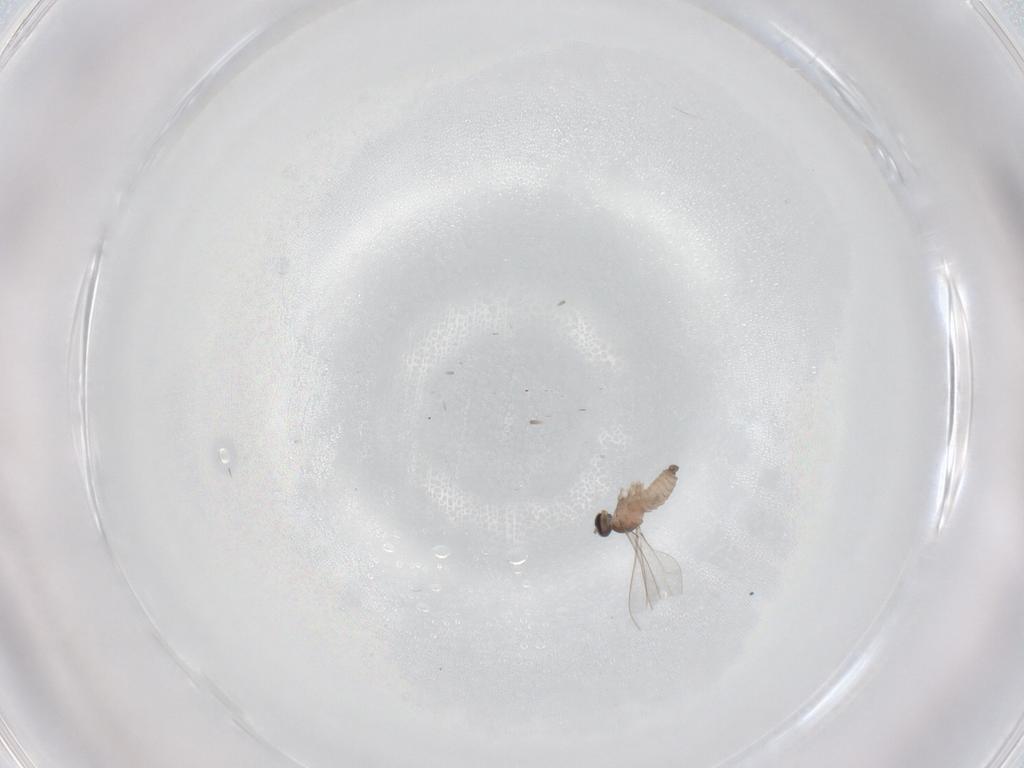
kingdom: Animalia
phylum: Arthropoda
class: Insecta
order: Diptera
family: Cecidomyiidae
